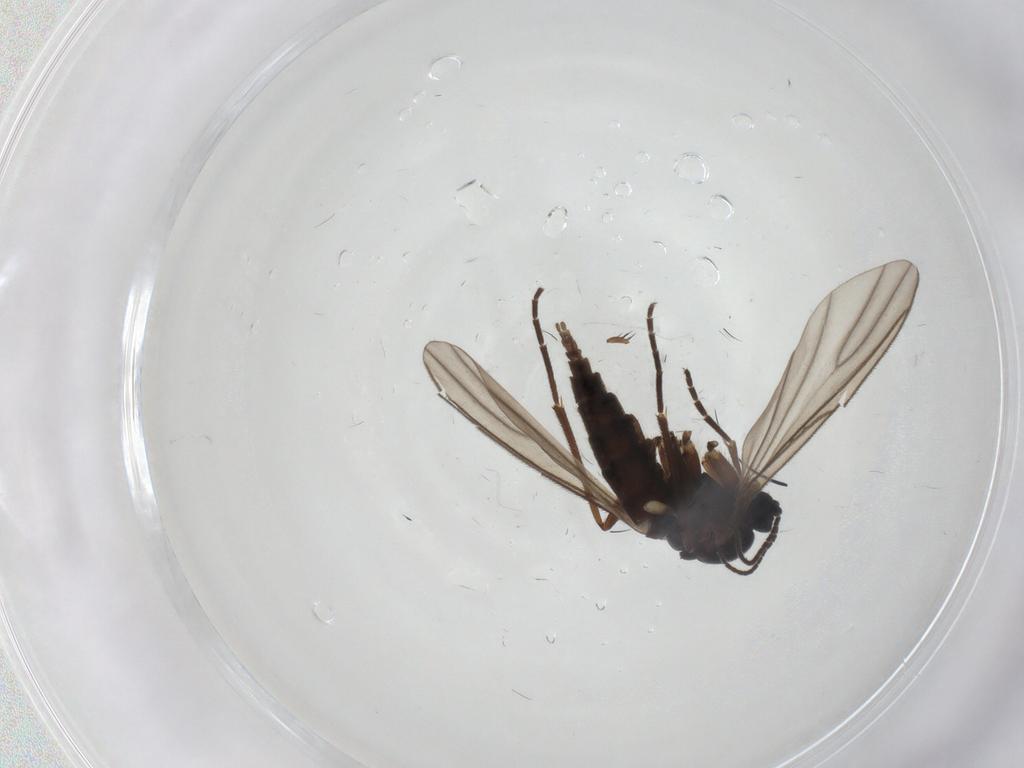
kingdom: Animalia
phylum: Arthropoda
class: Insecta
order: Diptera
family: Sciaridae
